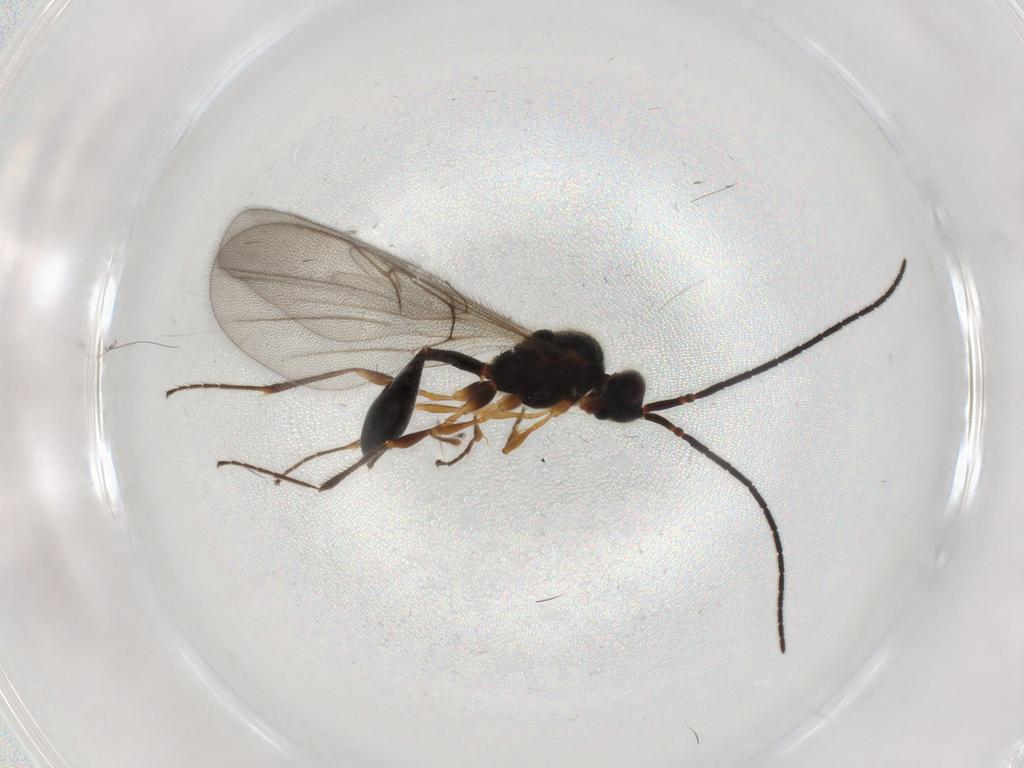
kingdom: Animalia
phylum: Arthropoda
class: Insecta
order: Hymenoptera
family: Diapriidae
